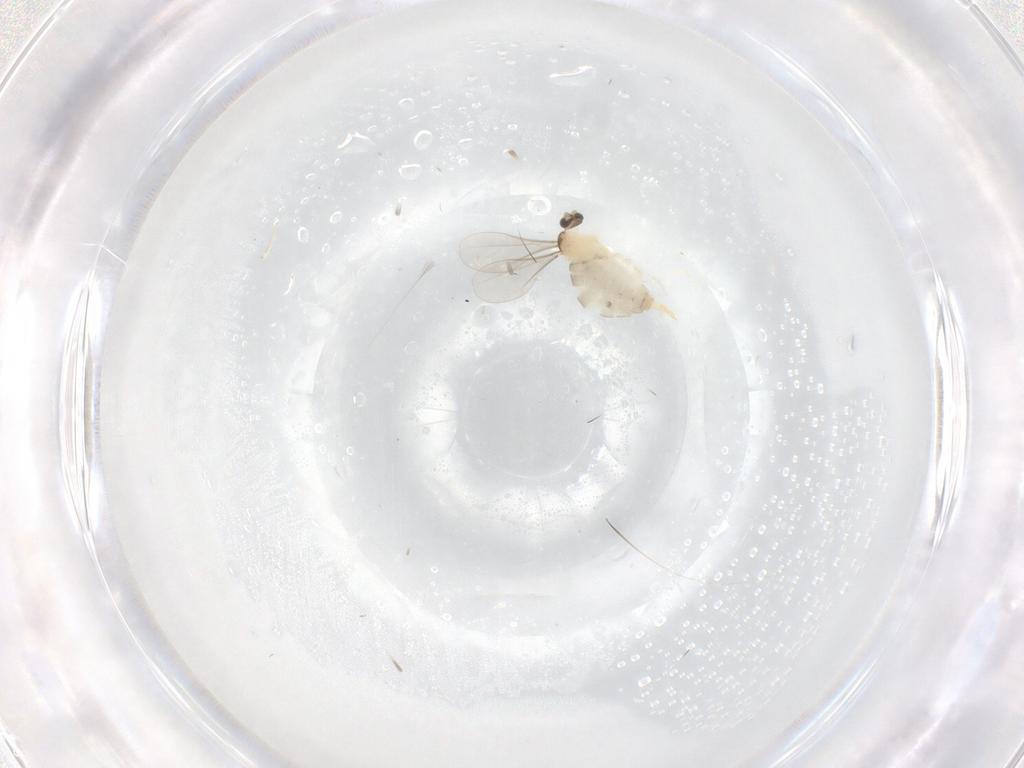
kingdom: Animalia
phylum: Arthropoda
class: Insecta
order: Diptera
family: Cecidomyiidae
